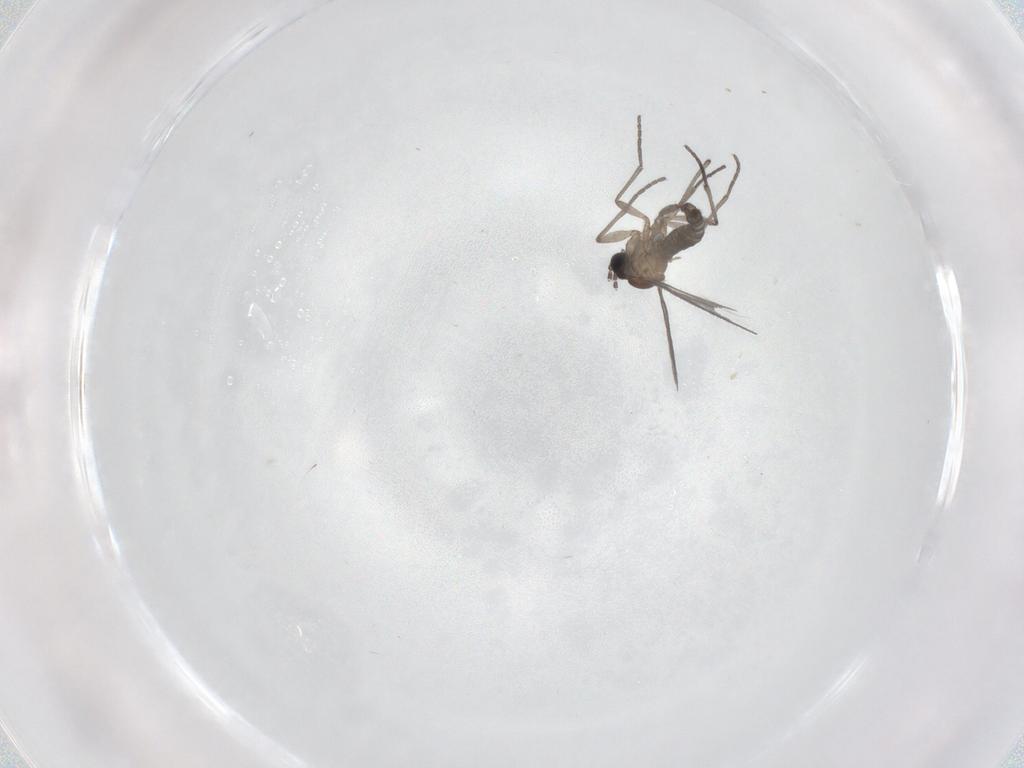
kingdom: Animalia
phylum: Arthropoda
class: Insecta
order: Diptera
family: Sciaridae
